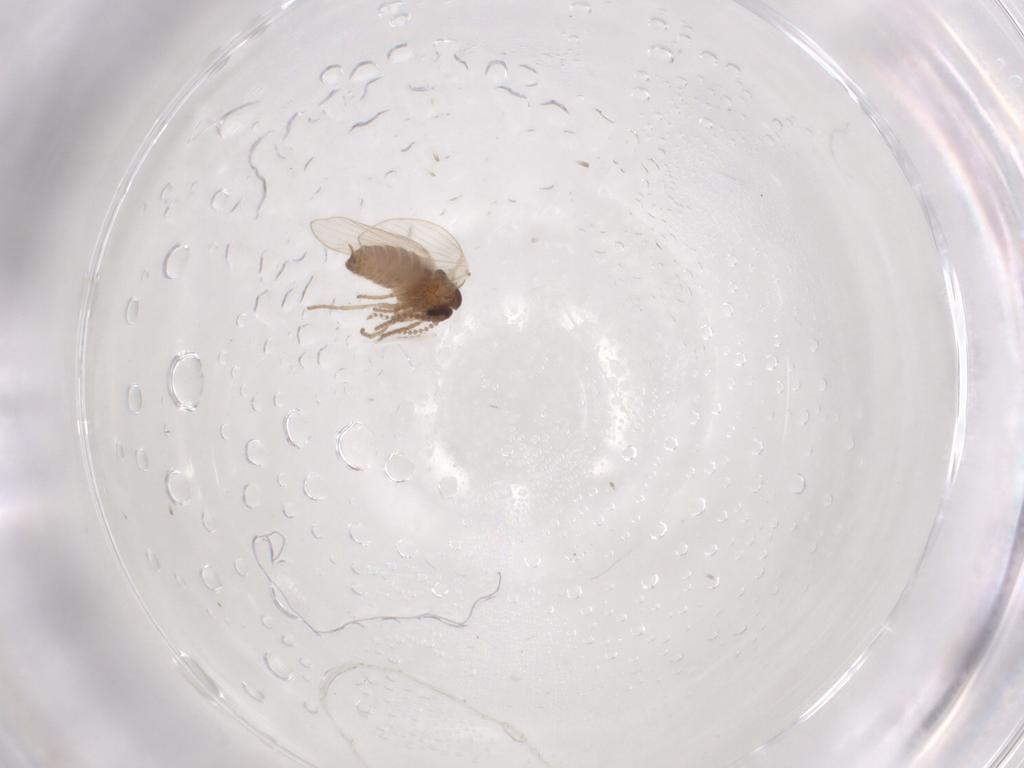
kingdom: Animalia
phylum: Arthropoda
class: Insecta
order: Diptera
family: Psychodidae
